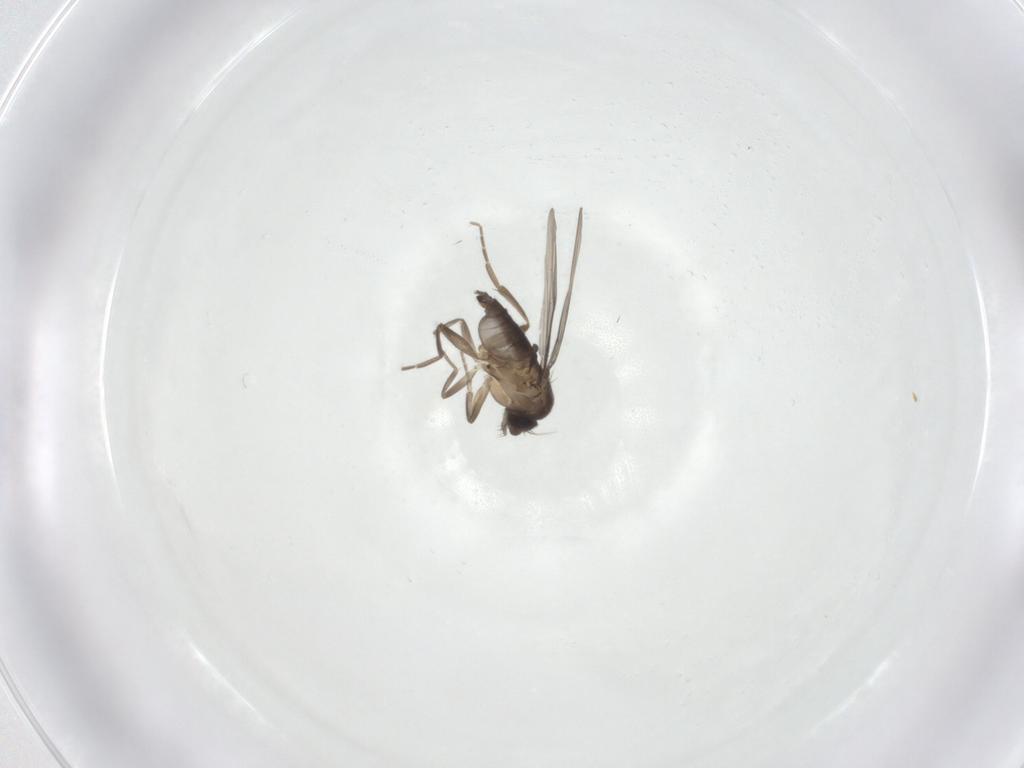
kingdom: Animalia
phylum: Arthropoda
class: Insecta
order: Diptera
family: Phoridae
